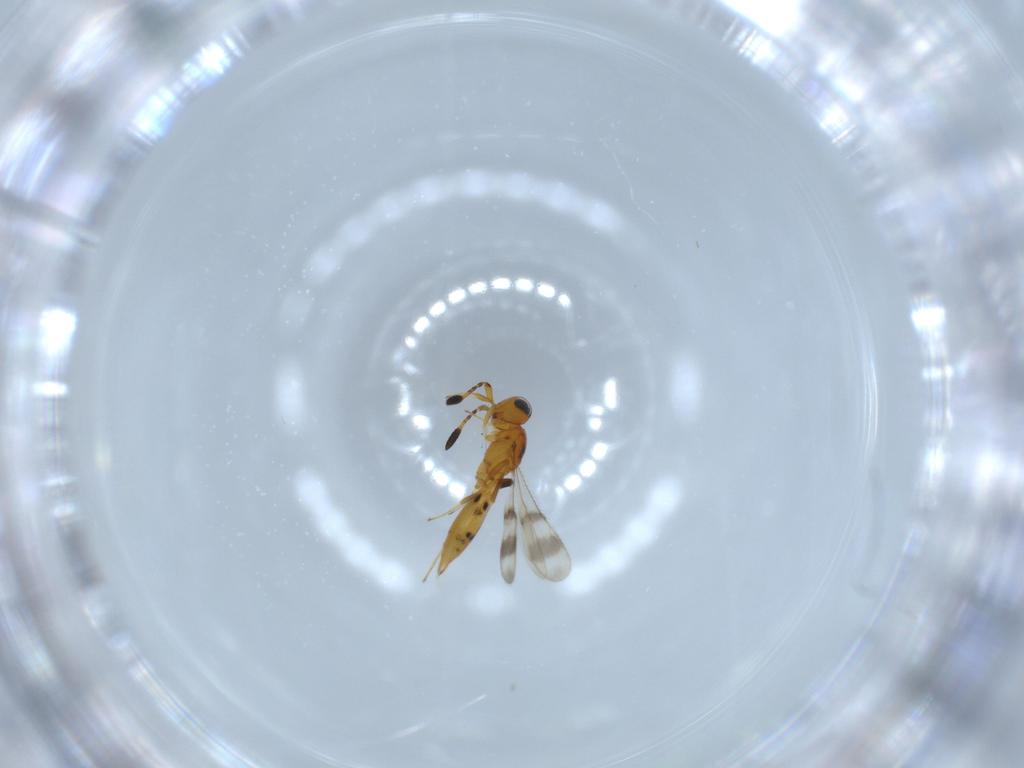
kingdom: Animalia
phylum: Arthropoda
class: Insecta
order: Hymenoptera
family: Scelionidae
